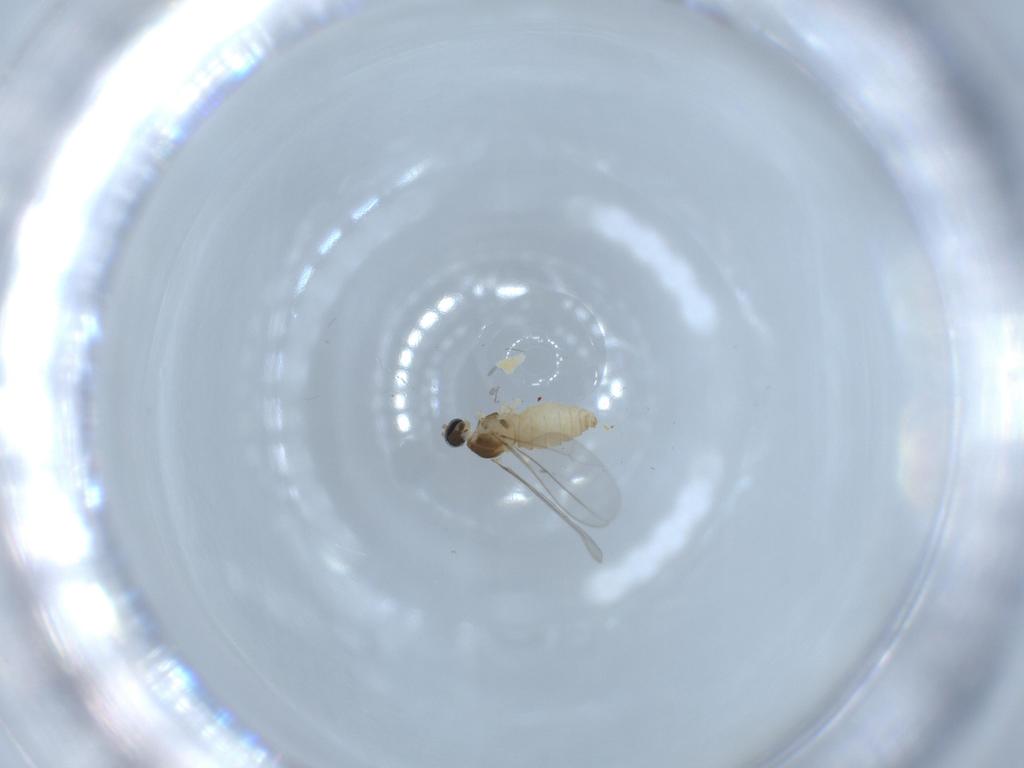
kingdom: Animalia
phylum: Arthropoda
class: Insecta
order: Diptera
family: Cecidomyiidae
